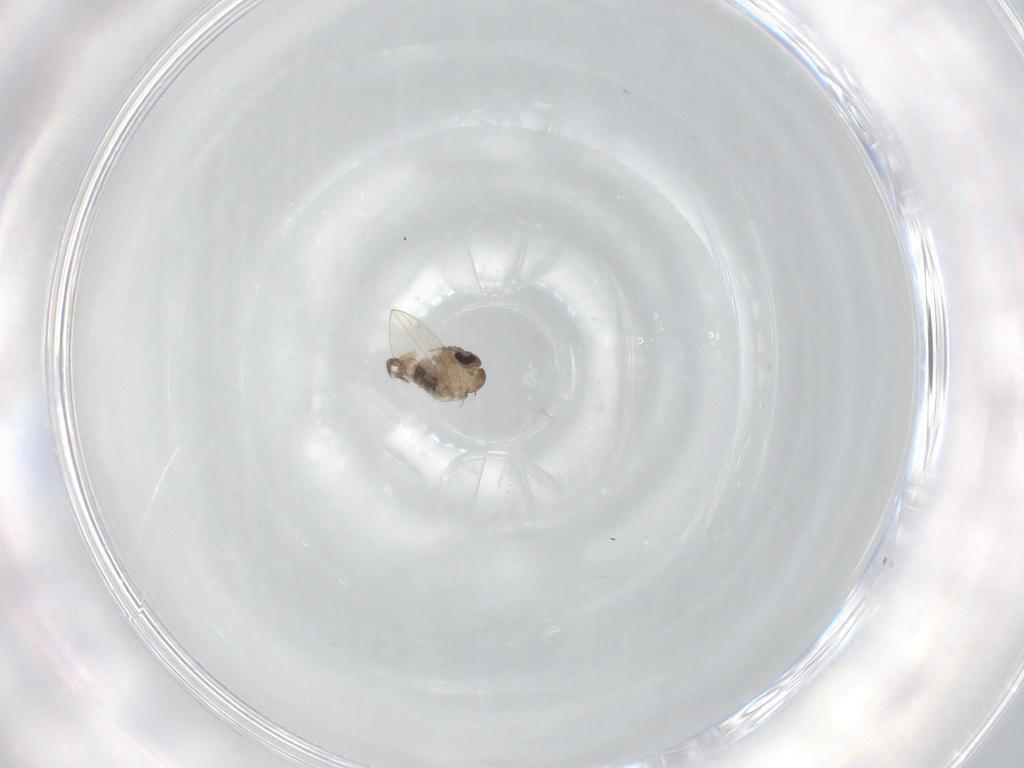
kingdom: Animalia
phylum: Arthropoda
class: Insecta
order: Diptera
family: Psychodidae
